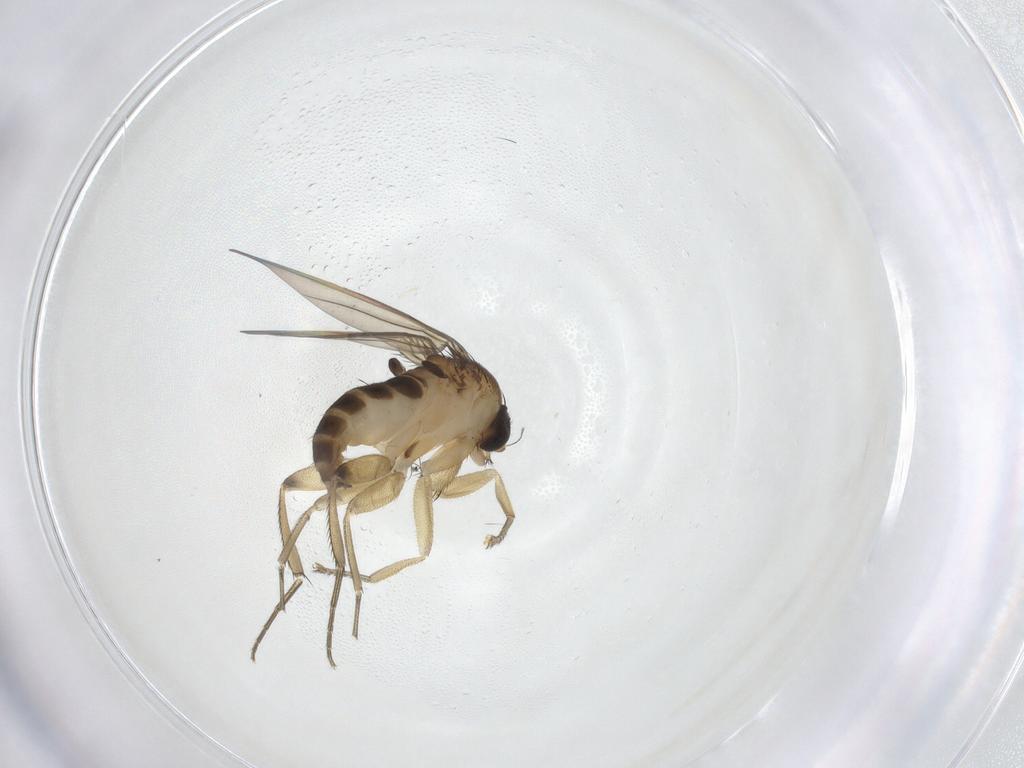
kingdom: Animalia
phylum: Arthropoda
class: Insecta
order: Diptera
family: Phoridae
